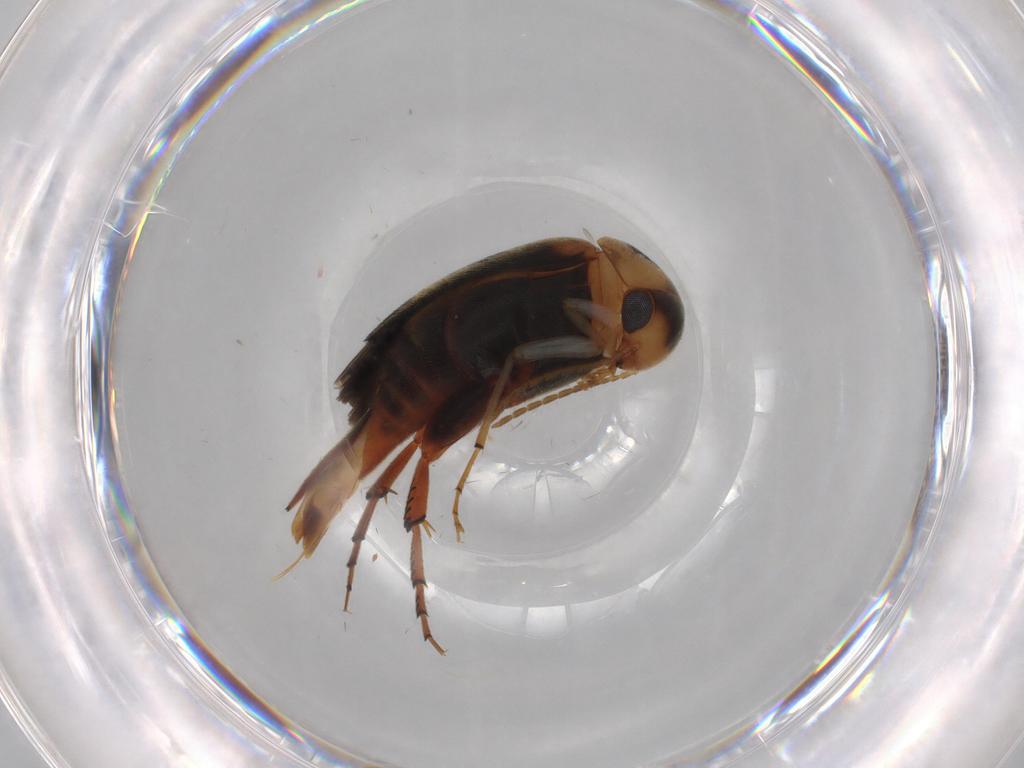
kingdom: Animalia
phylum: Arthropoda
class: Insecta
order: Coleoptera
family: Mordellidae
